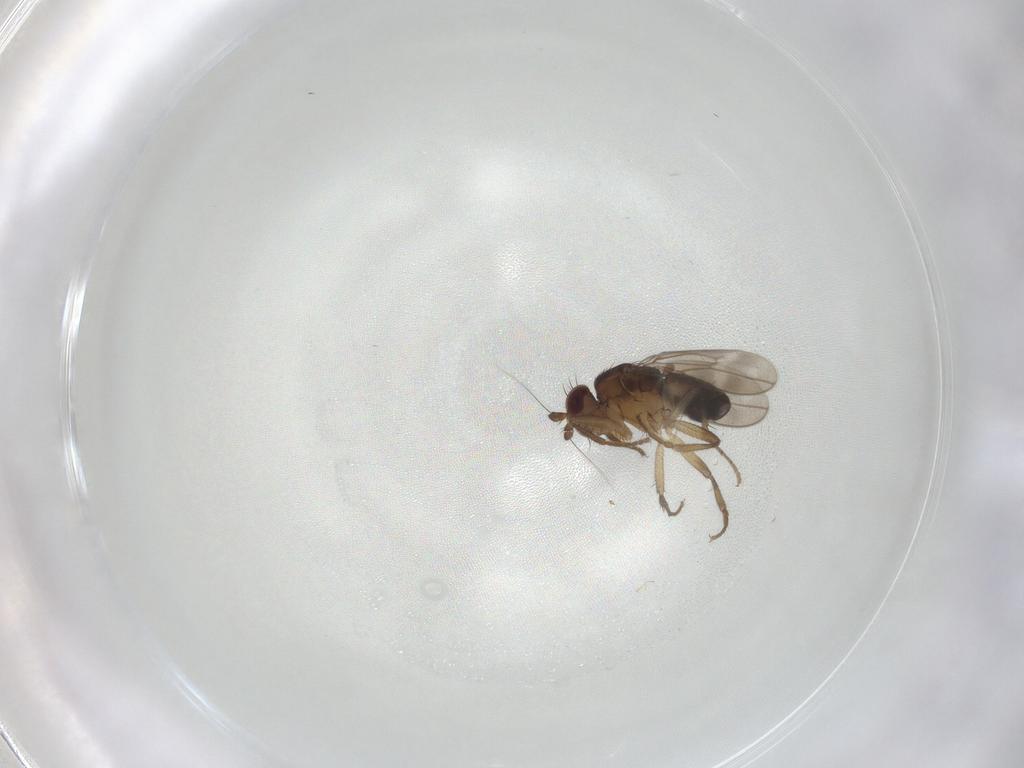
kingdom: Animalia
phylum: Arthropoda
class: Insecta
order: Diptera
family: Sphaeroceridae
